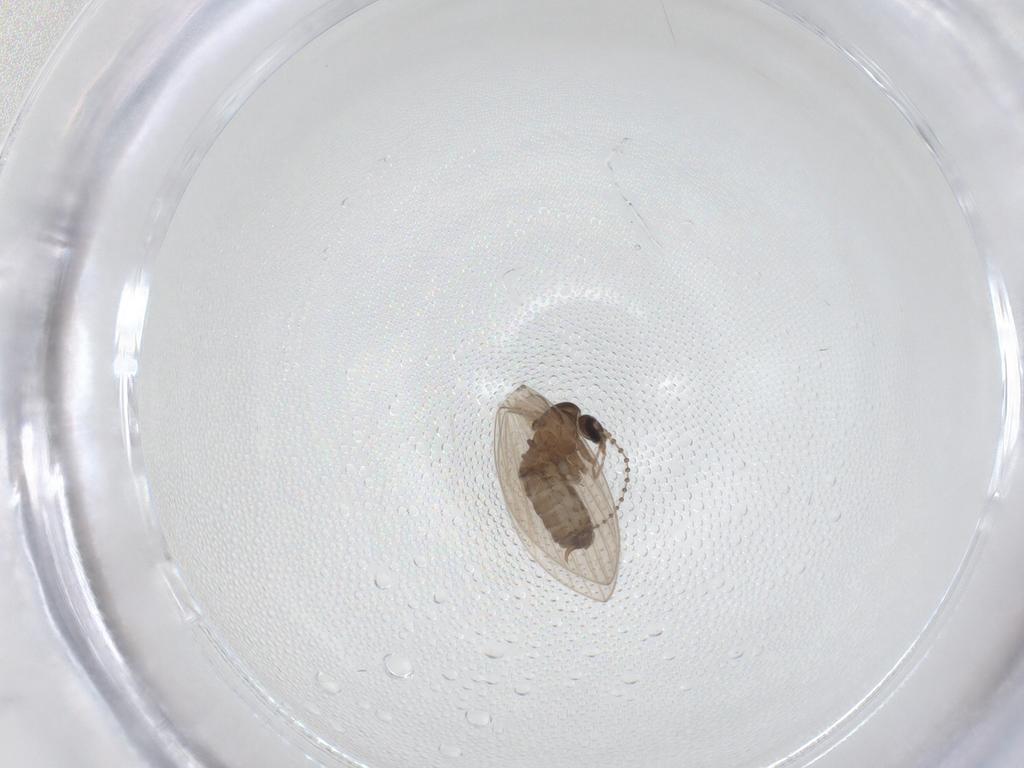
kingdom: Animalia
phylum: Arthropoda
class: Insecta
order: Diptera
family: Psychodidae
